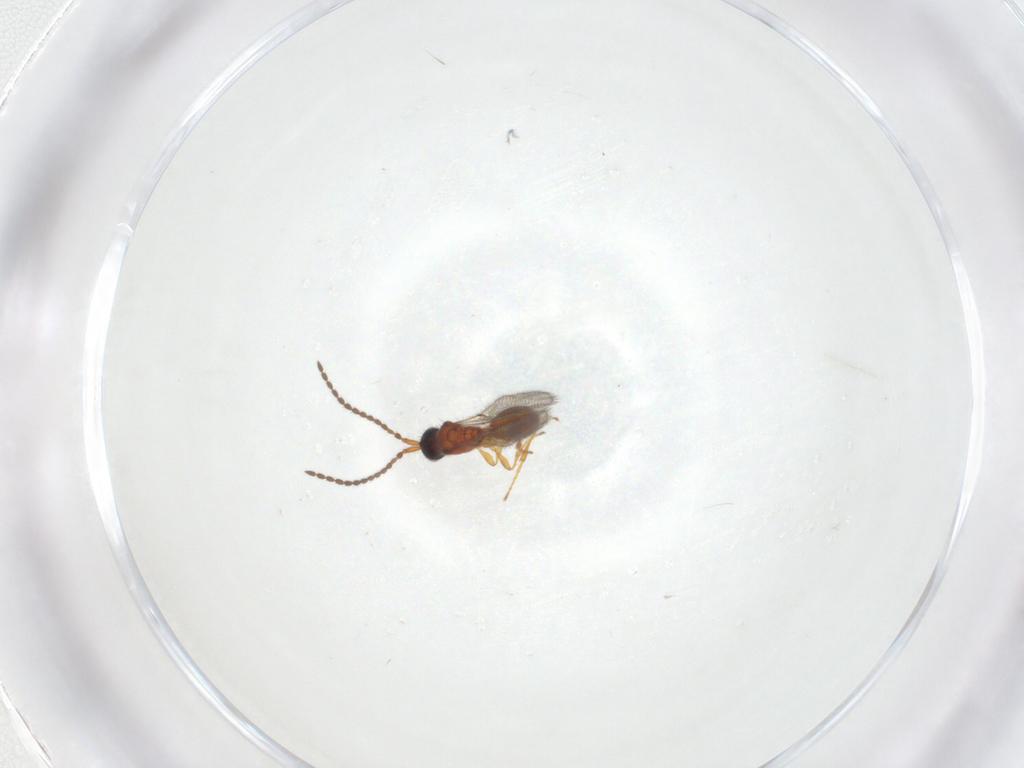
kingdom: Animalia
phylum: Arthropoda
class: Insecta
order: Hymenoptera
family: Diapriidae
